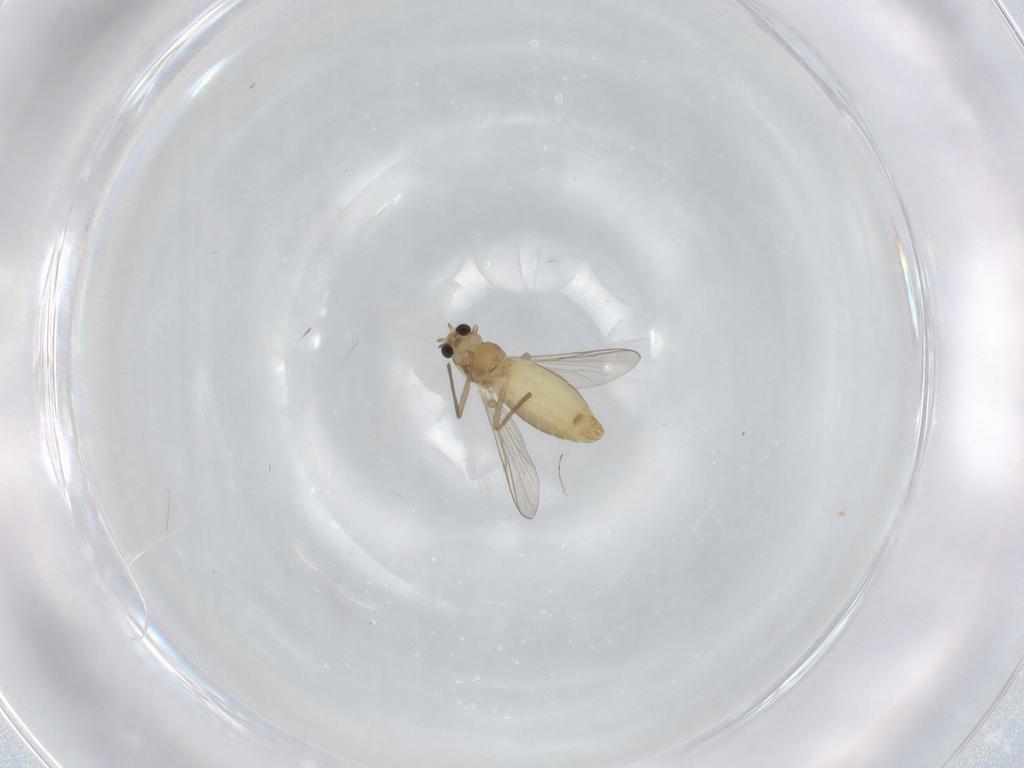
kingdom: Animalia
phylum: Arthropoda
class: Insecta
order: Diptera
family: Chironomidae
